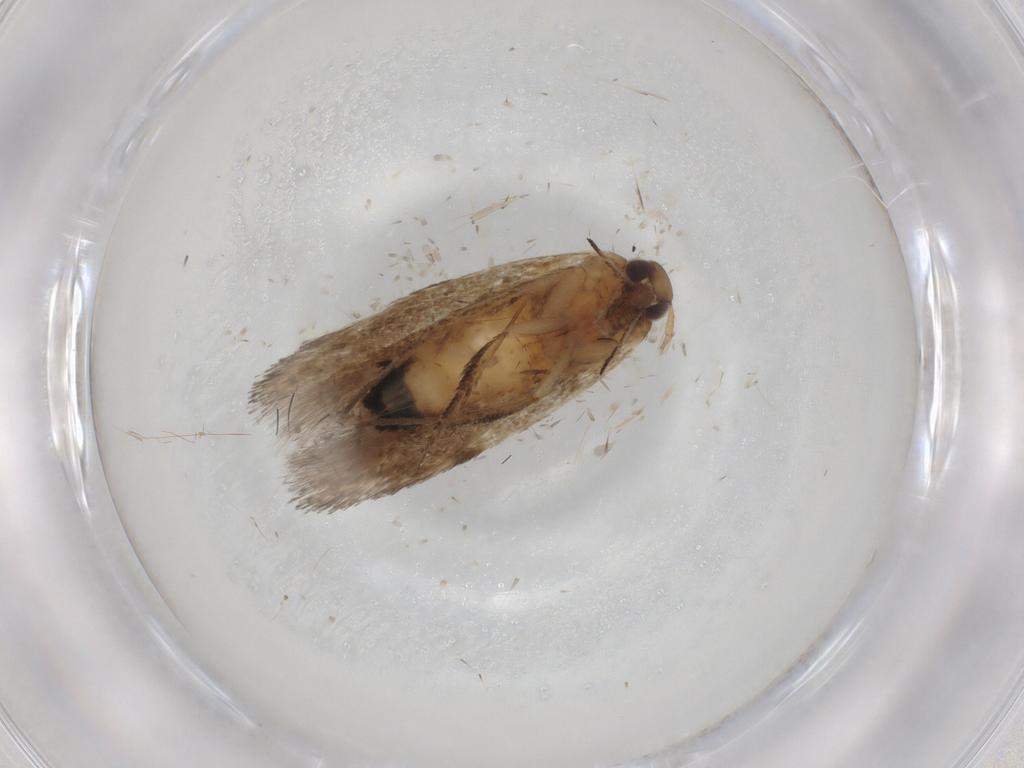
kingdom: Animalia
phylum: Arthropoda
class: Insecta
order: Lepidoptera
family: Cosmopterigidae
